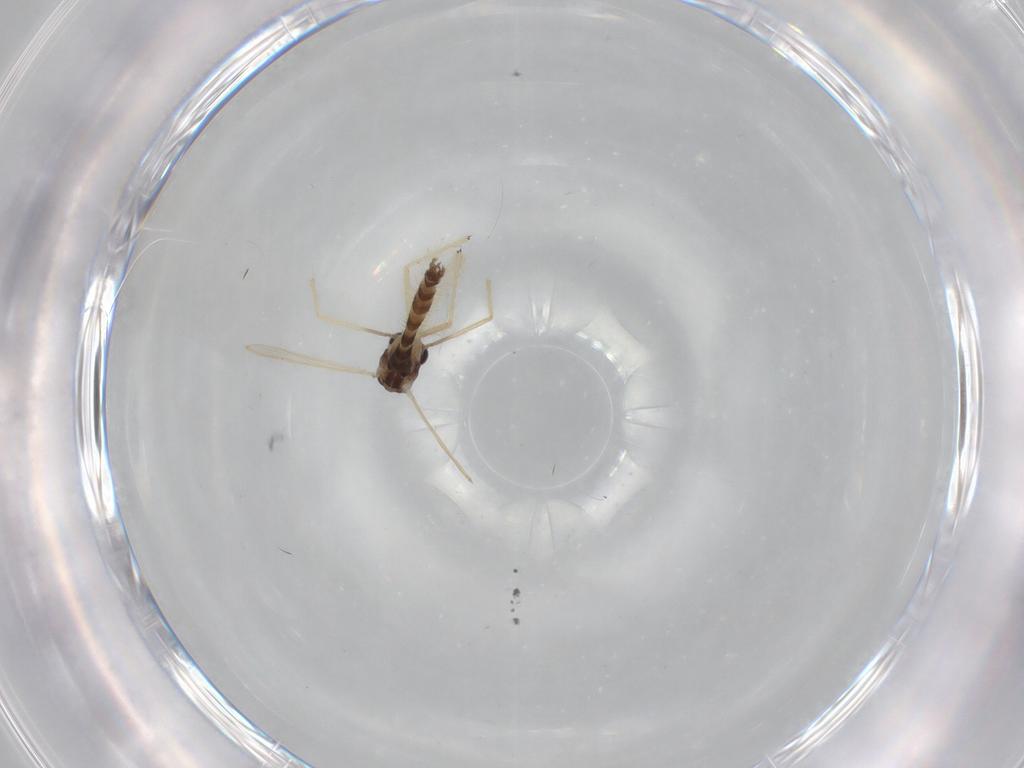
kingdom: Animalia
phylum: Arthropoda
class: Insecta
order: Diptera
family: Chironomidae
